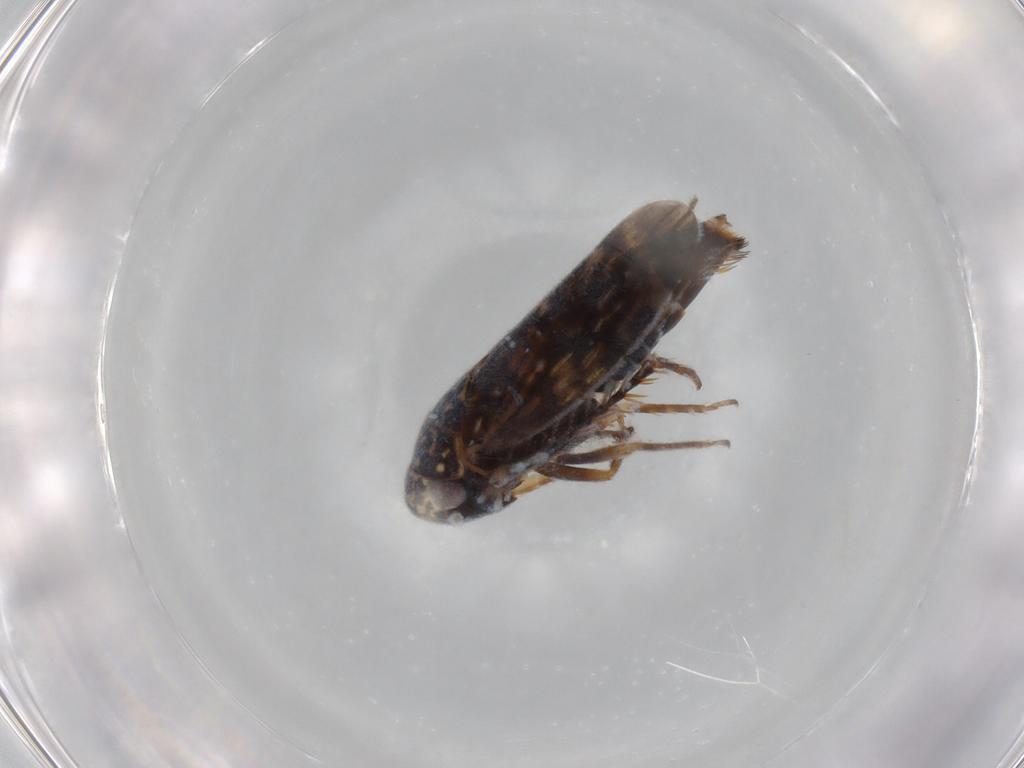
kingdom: Animalia
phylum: Arthropoda
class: Insecta
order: Hemiptera
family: Cicadellidae
